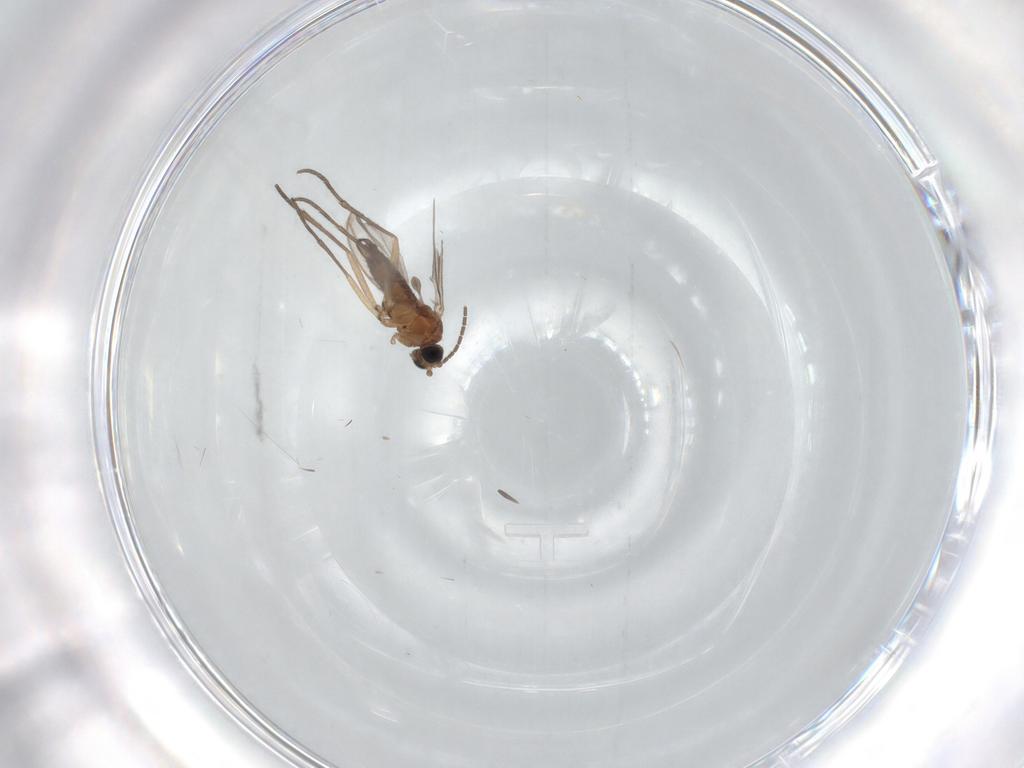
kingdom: Animalia
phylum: Arthropoda
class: Insecta
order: Diptera
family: Sciaridae
